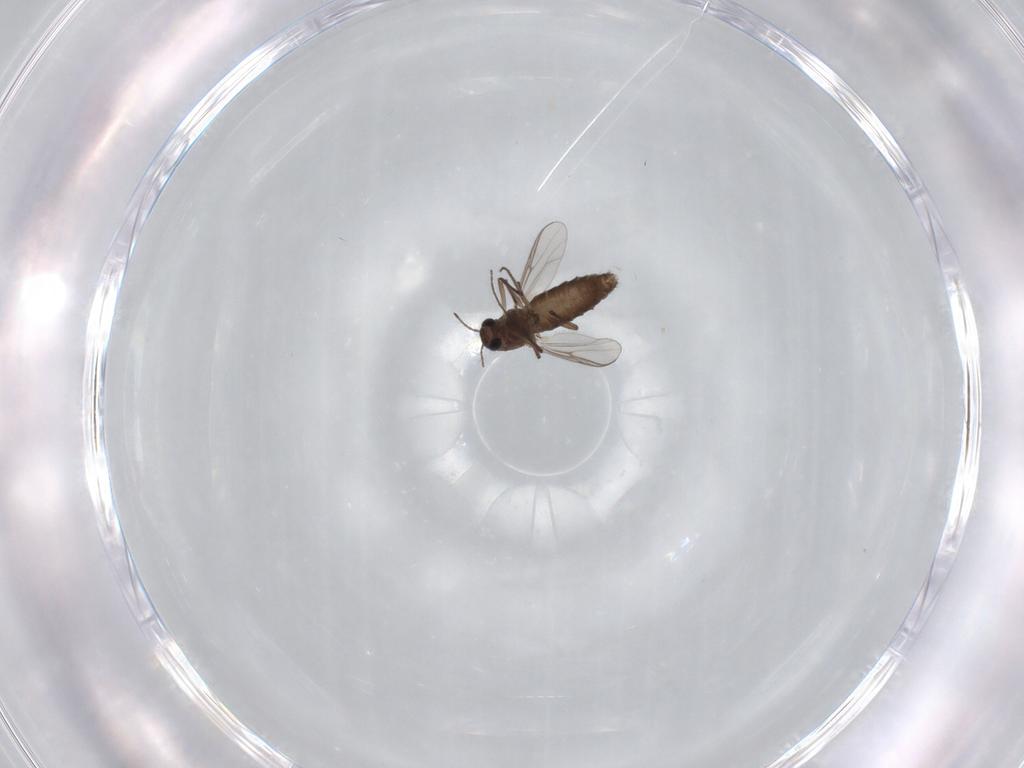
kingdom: Animalia
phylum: Arthropoda
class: Insecta
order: Diptera
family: Chironomidae
